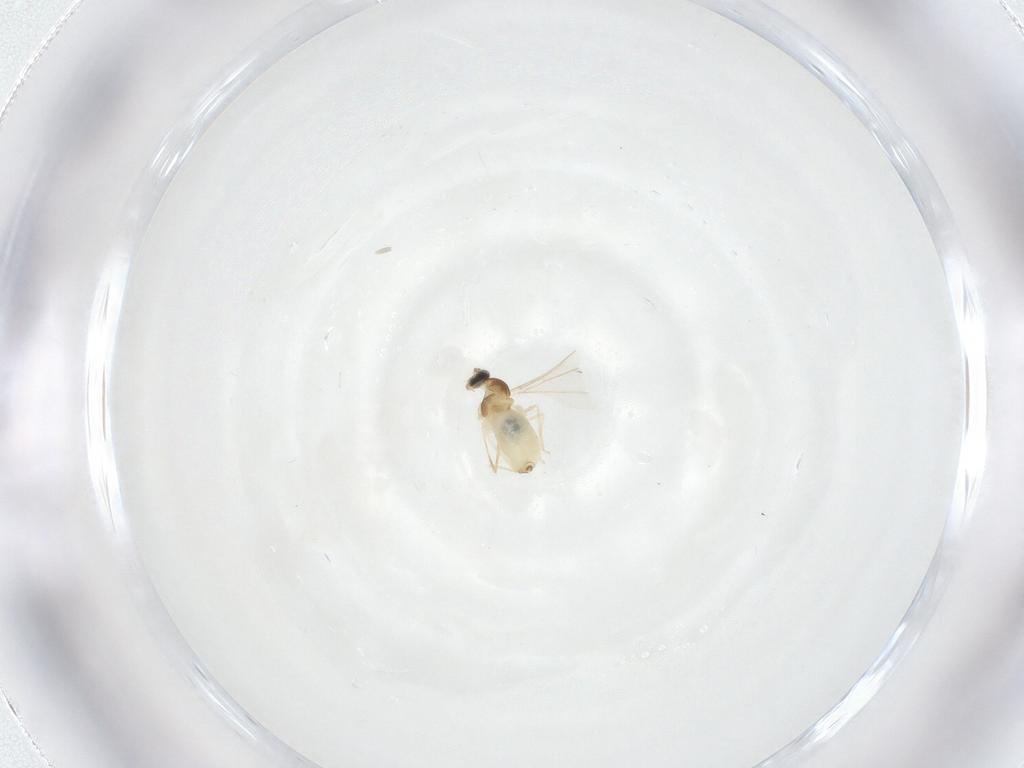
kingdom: Animalia
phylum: Arthropoda
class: Insecta
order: Diptera
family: Cecidomyiidae
